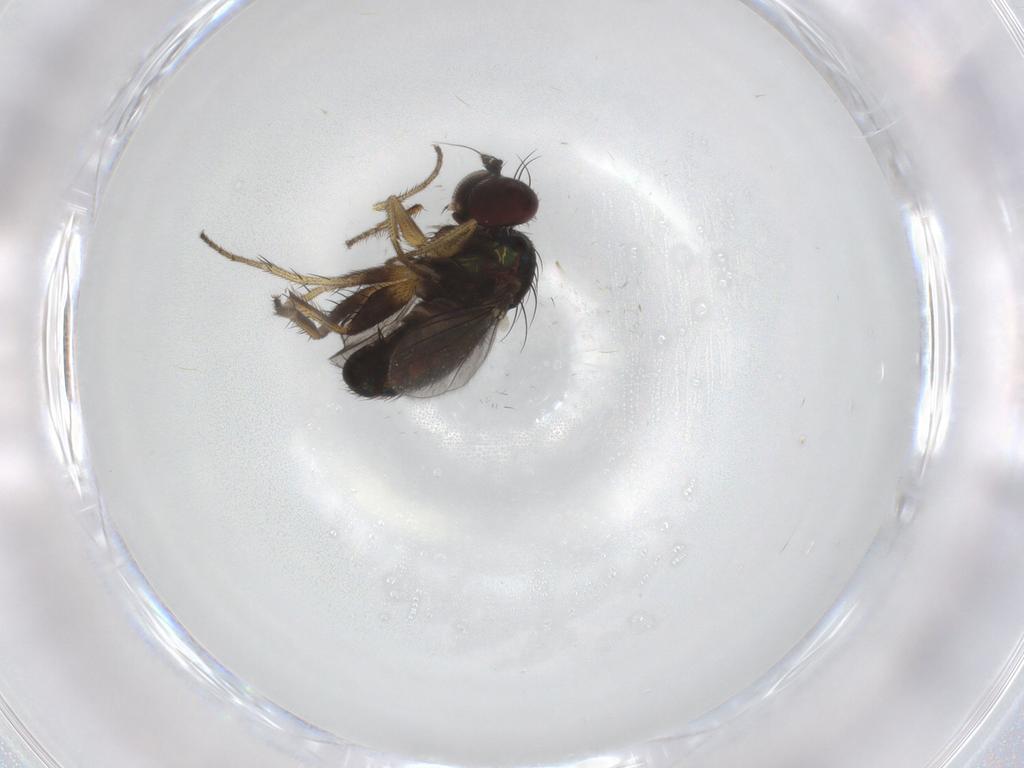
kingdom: Animalia
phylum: Arthropoda
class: Insecta
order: Diptera
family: Dolichopodidae
